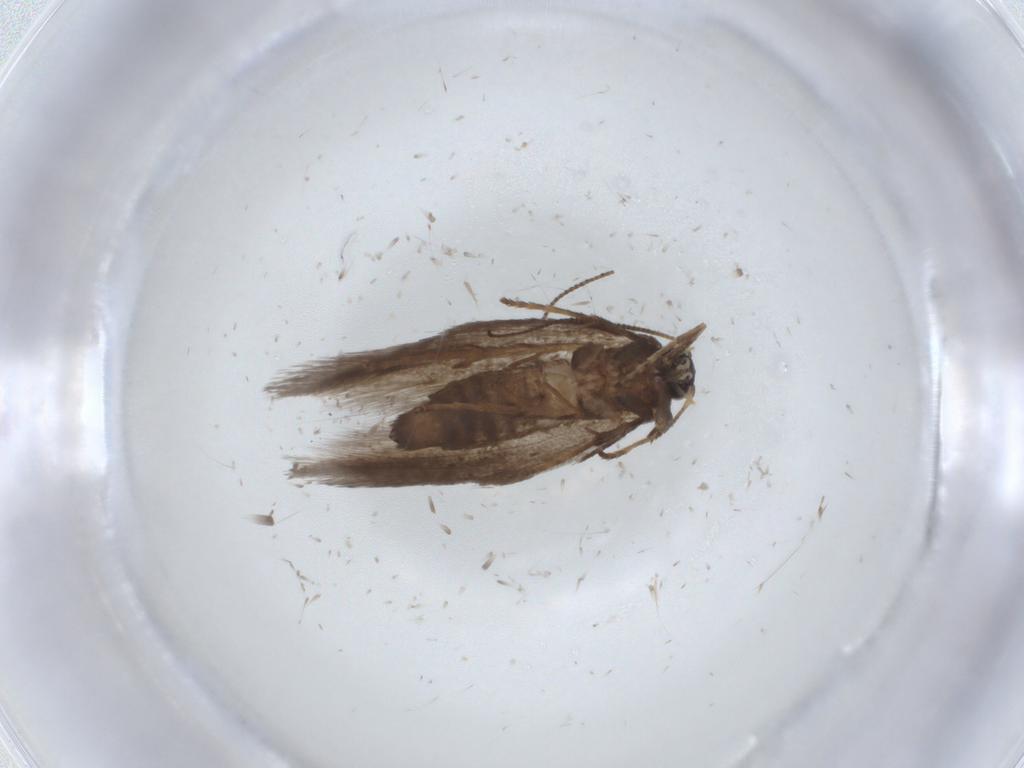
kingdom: Animalia
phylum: Arthropoda
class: Insecta
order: Lepidoptera
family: Nepticulidae
